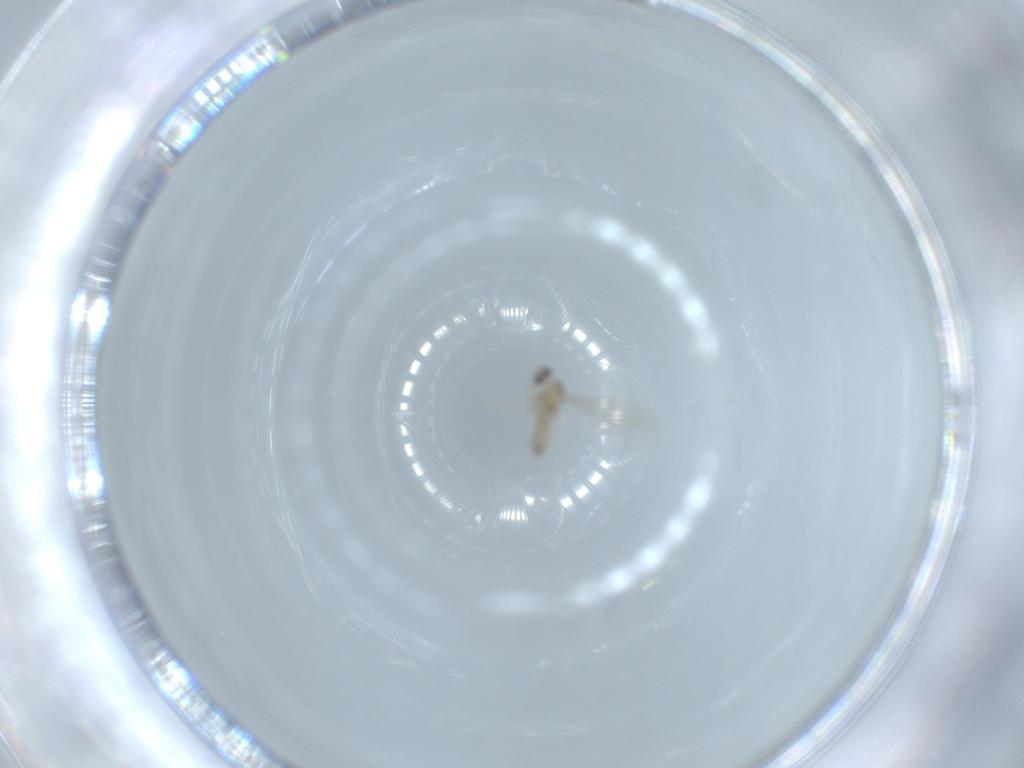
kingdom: Animalia
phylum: Arthropoda
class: Insecta
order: Diptera
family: Cecidomyiidae
